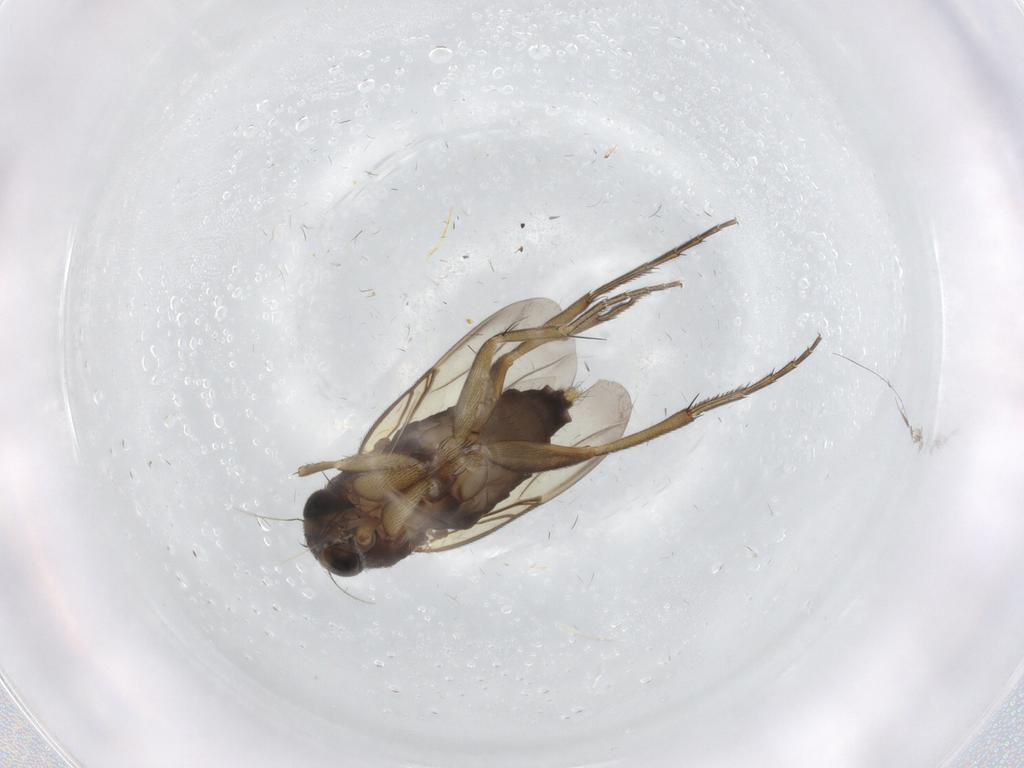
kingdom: Animalia
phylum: Arthropoda
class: Insecta
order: Diptera
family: Phoridae
